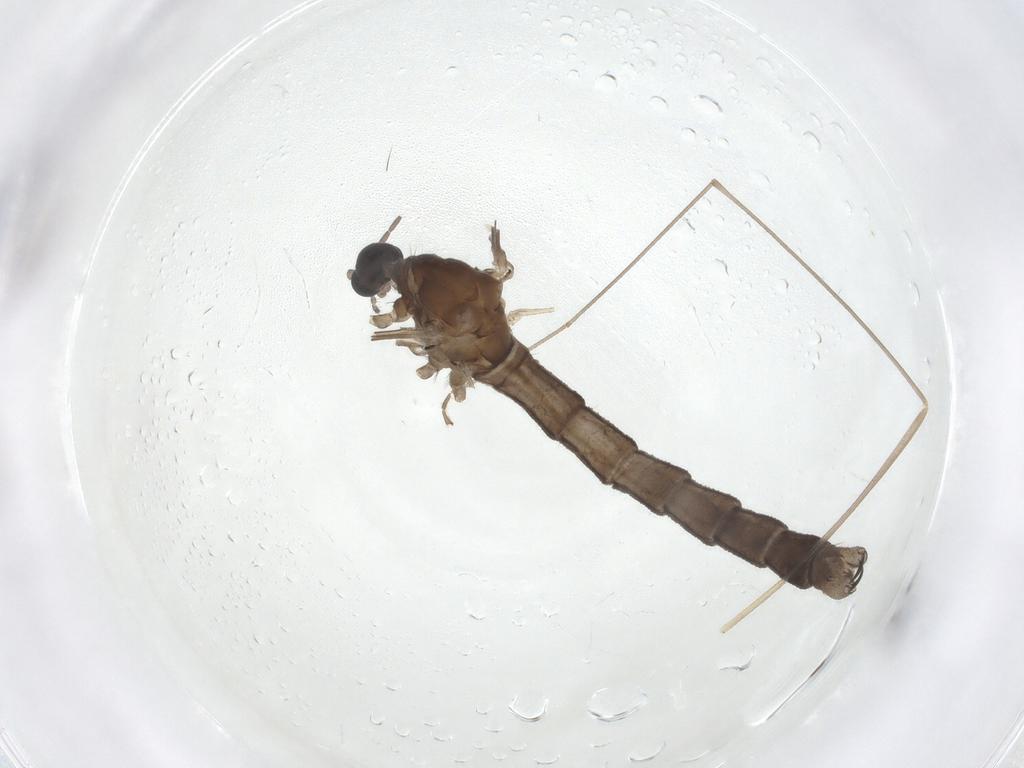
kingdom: Animalia
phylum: Arthropoda
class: Insecta
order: Diptera
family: Limoniidae
